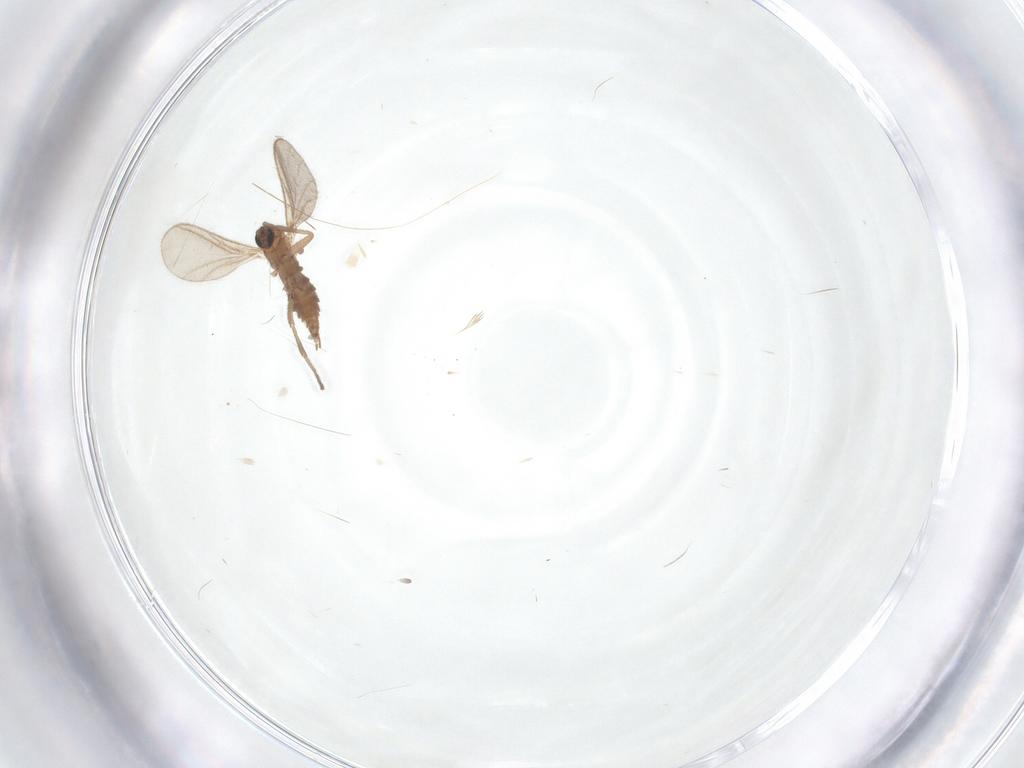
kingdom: Animalia
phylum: Arthropoda
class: Insecta
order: Diptera
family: Sciaridae
